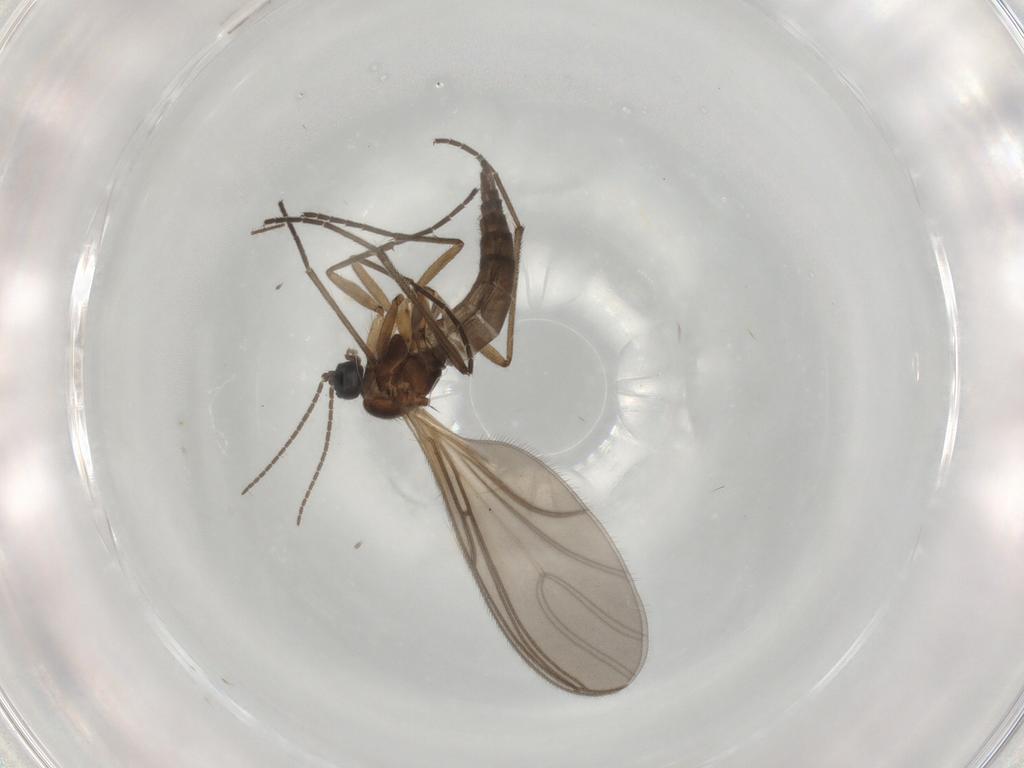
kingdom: Animalia
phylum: Arthropoda
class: Insecta
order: Diptera
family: Sciaridae
